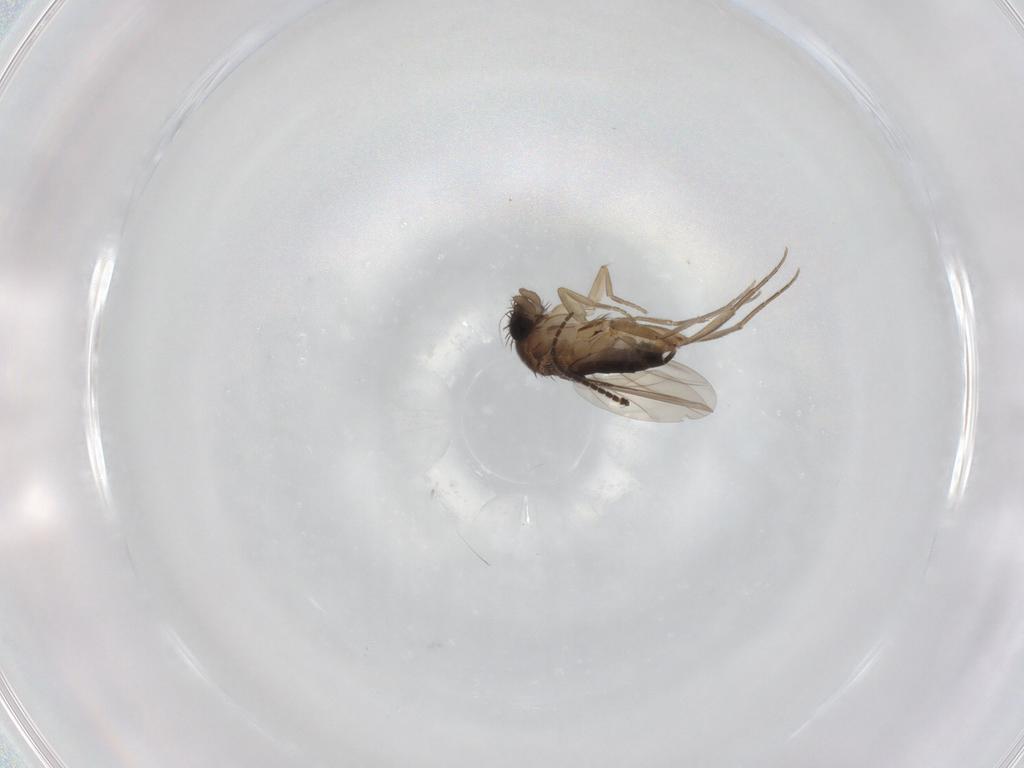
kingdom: Animalia
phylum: Arthropoda
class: Insecta
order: Diptera
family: Phoridae
